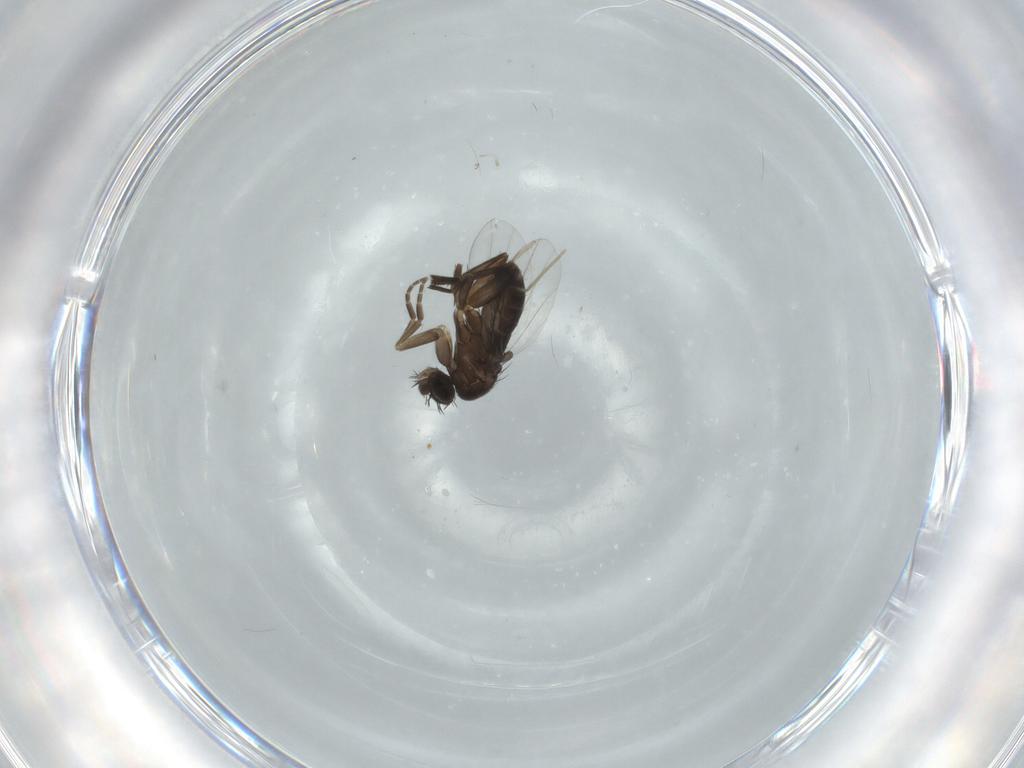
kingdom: Animalia
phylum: Arthropoda
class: Insecta
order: Diptera
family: Phoridae
